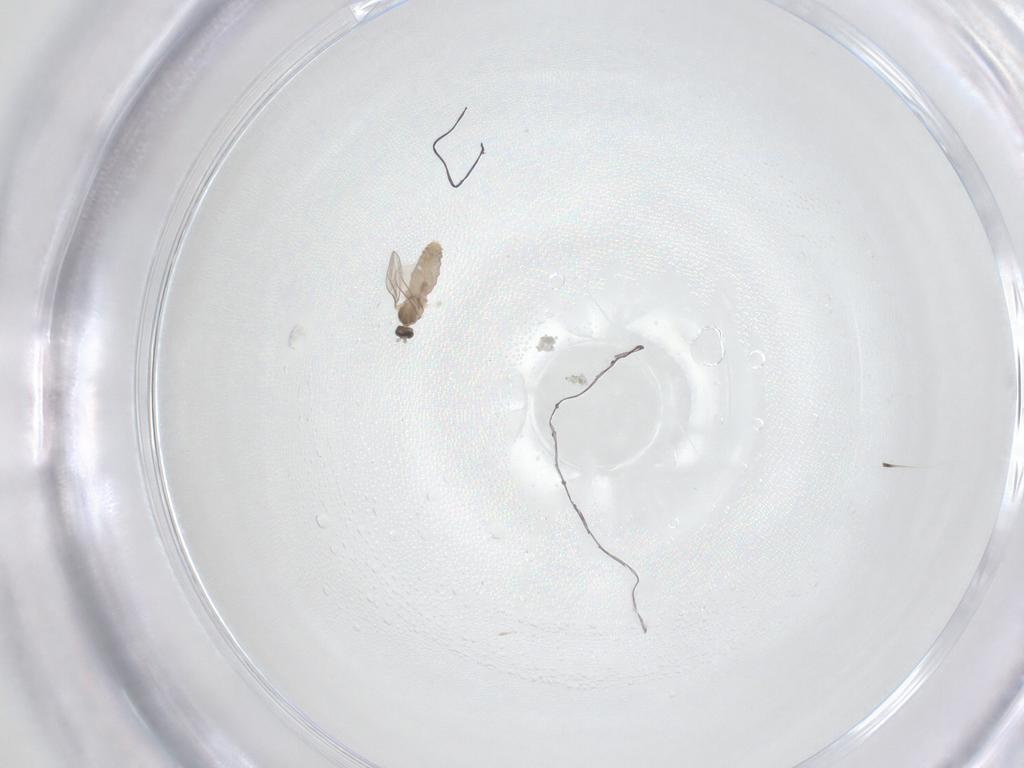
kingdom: Animalia
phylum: Arthropoda
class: Insecta
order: Diptera
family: Cecidomyiidae
